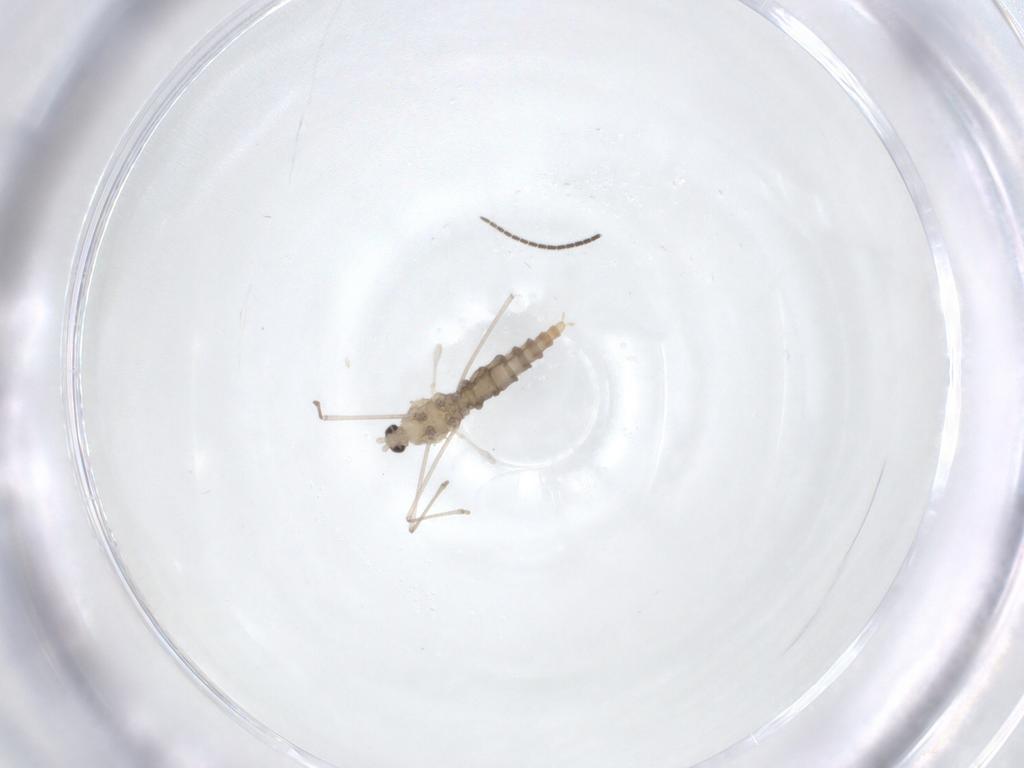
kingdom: Animalia
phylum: Arthropoda
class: Insecta
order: Diptera
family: Cecidomyiidae
